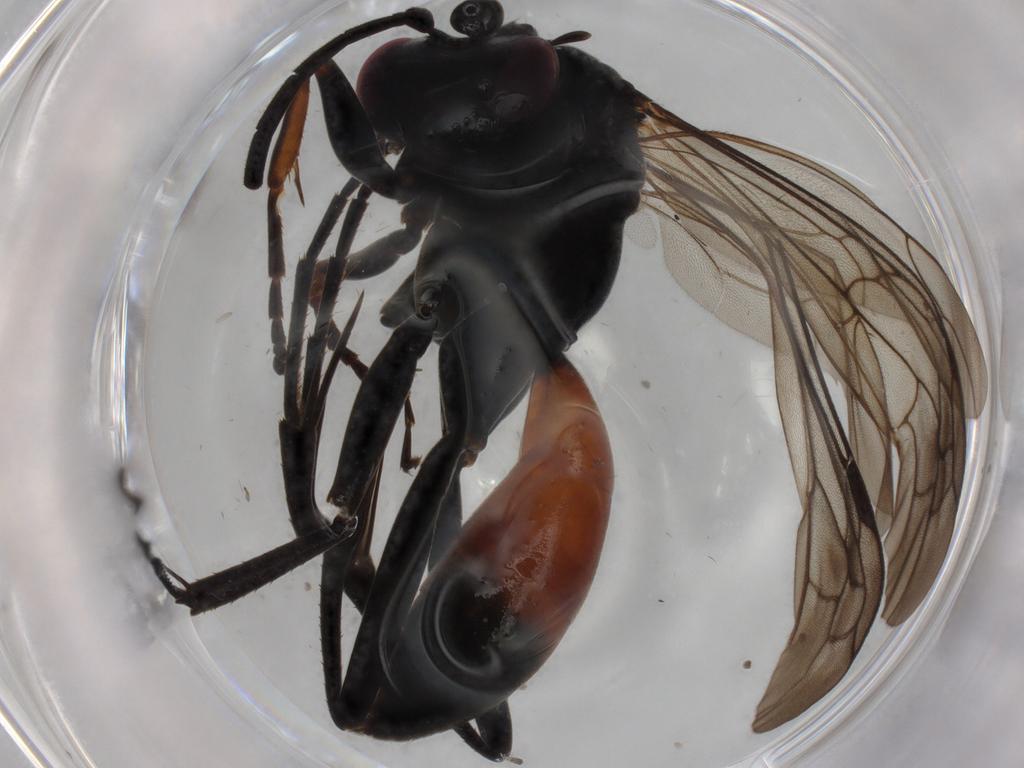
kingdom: Animalia
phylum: Arthropoda
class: Insecta
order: Hymenoptera
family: Pompilidae
